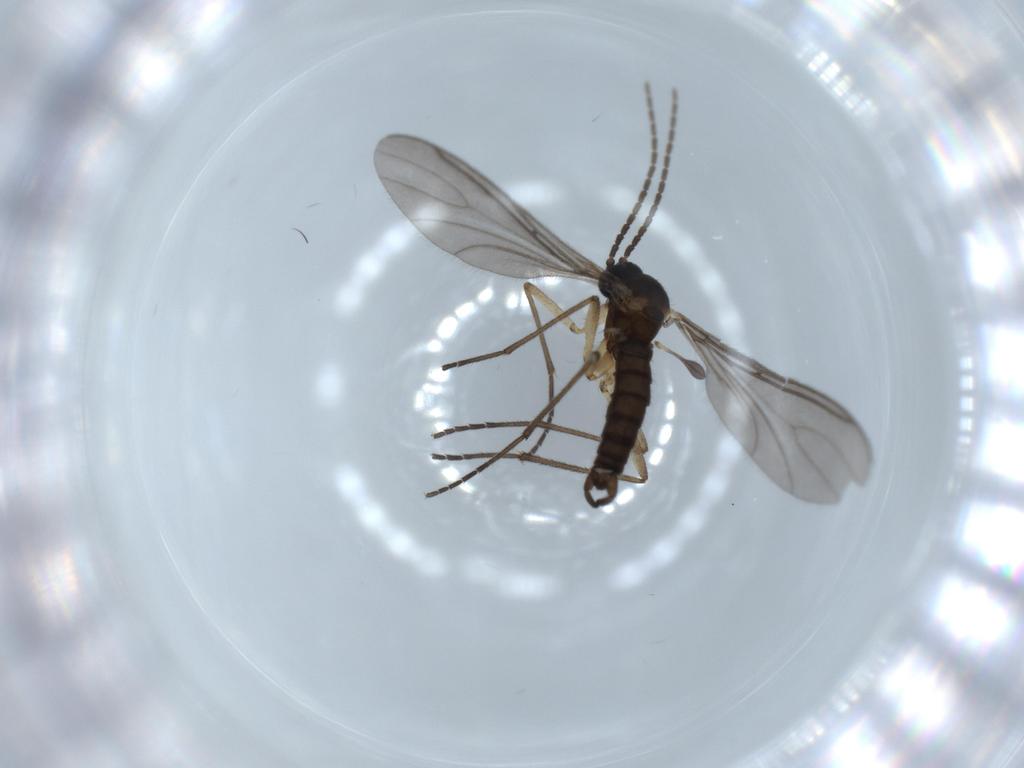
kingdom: Animalia
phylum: Arthropoda
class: Insecta
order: Diptera
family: Sciaridae
